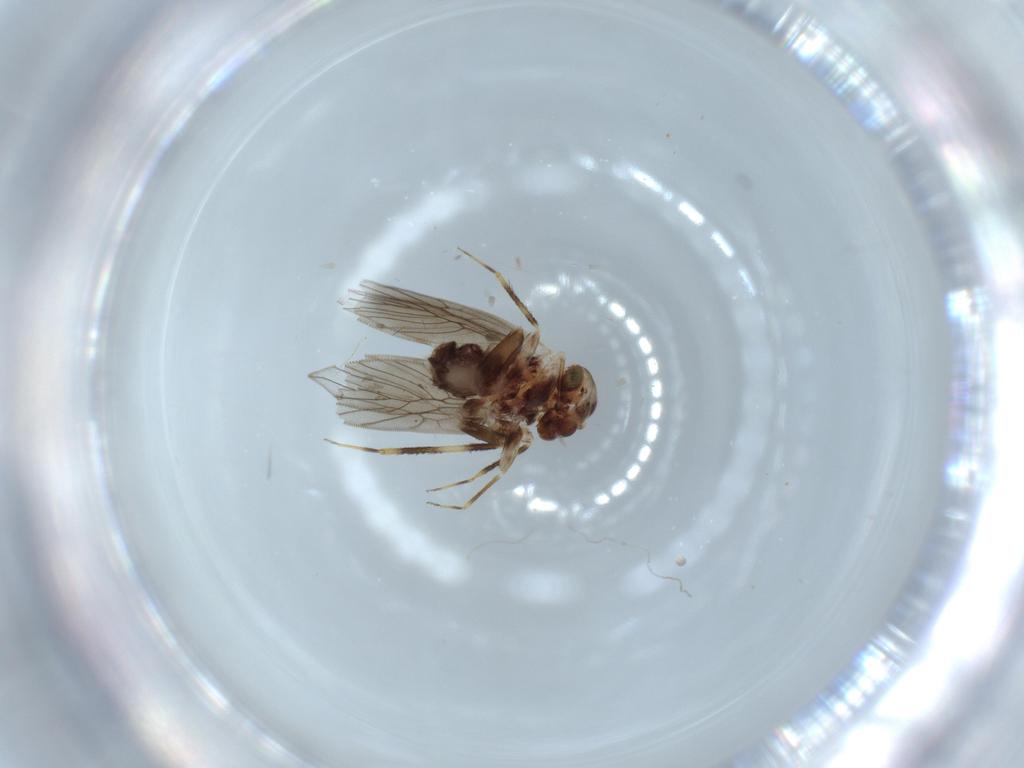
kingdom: Animalia
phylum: Arthropoda
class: Insecta
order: Psocodea
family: Lepidopsocidae
